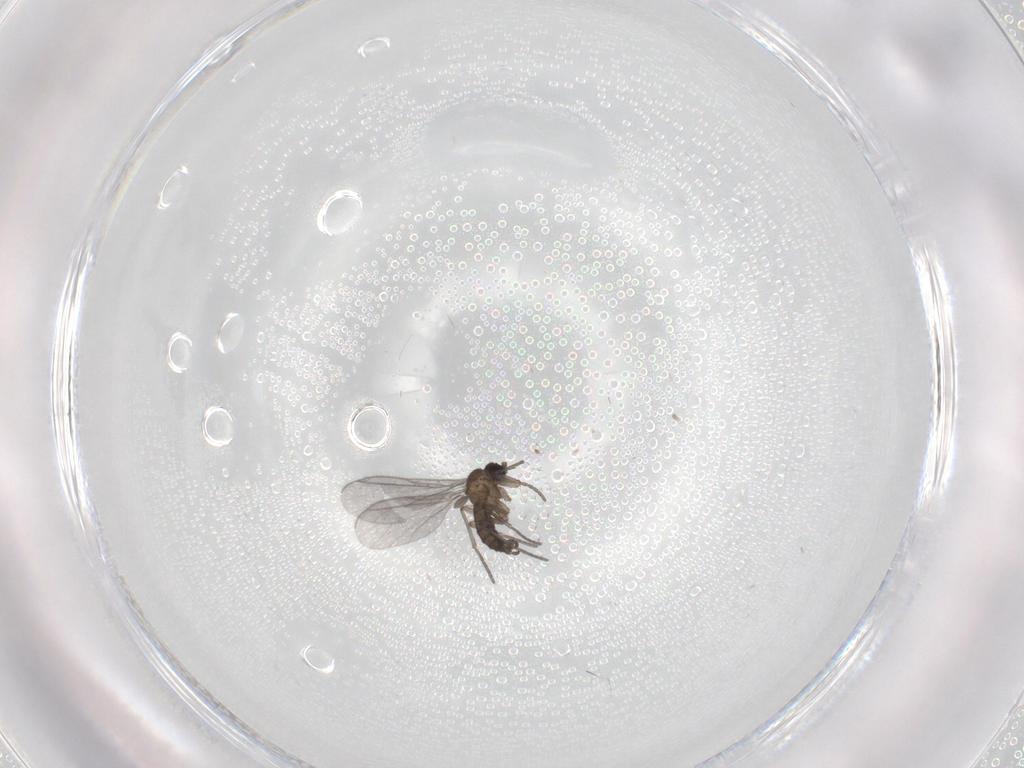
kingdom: Animalia
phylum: Arthropoda
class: Insecta
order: Diptera
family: Sciaridae
